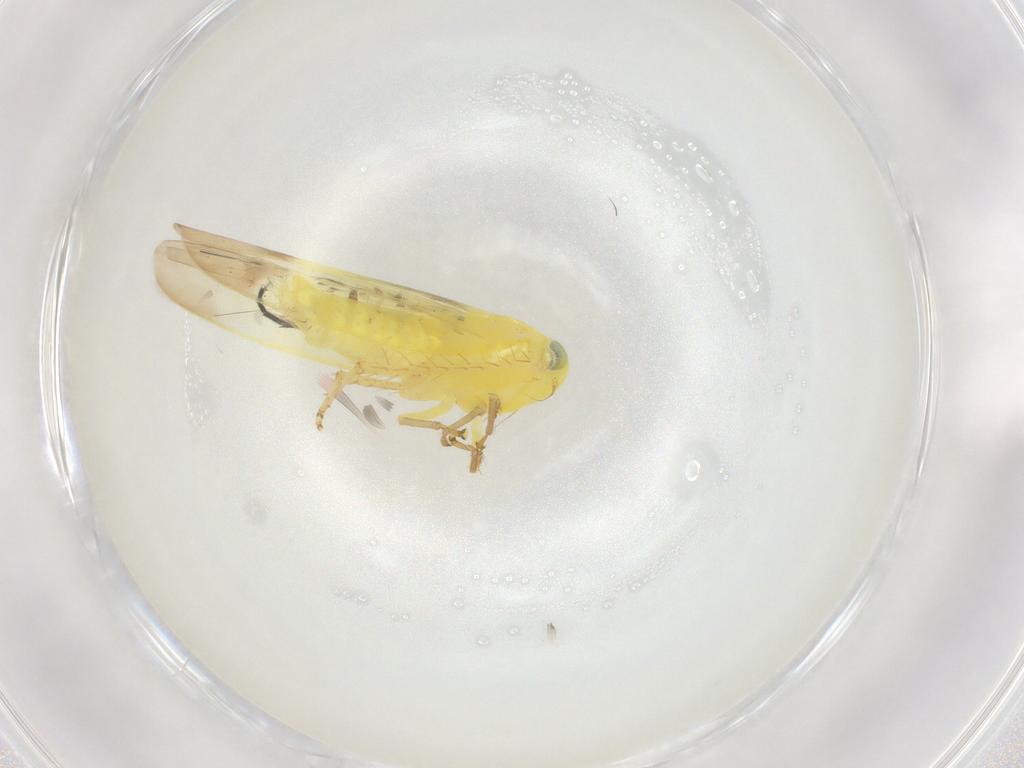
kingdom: Animalia
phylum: Arthropoda
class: Insecta
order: Hemiptera
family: Cicadellidae
